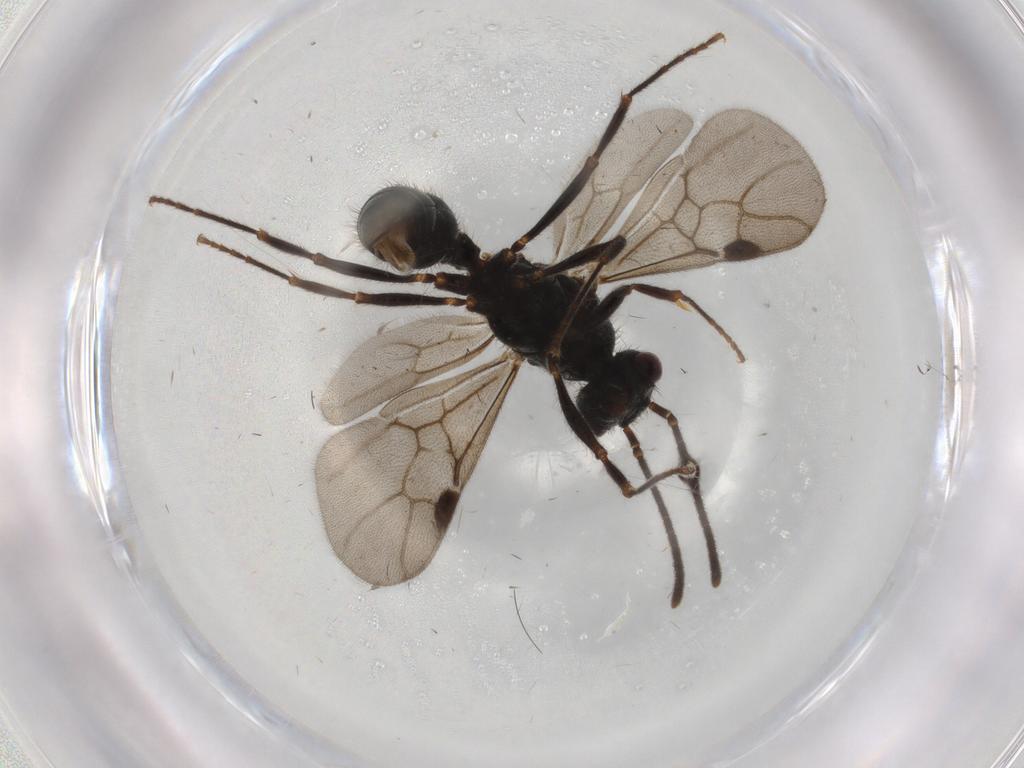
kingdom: Animalia
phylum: Arthropoda
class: Insecta
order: Hymenoptera
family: Formicidae
